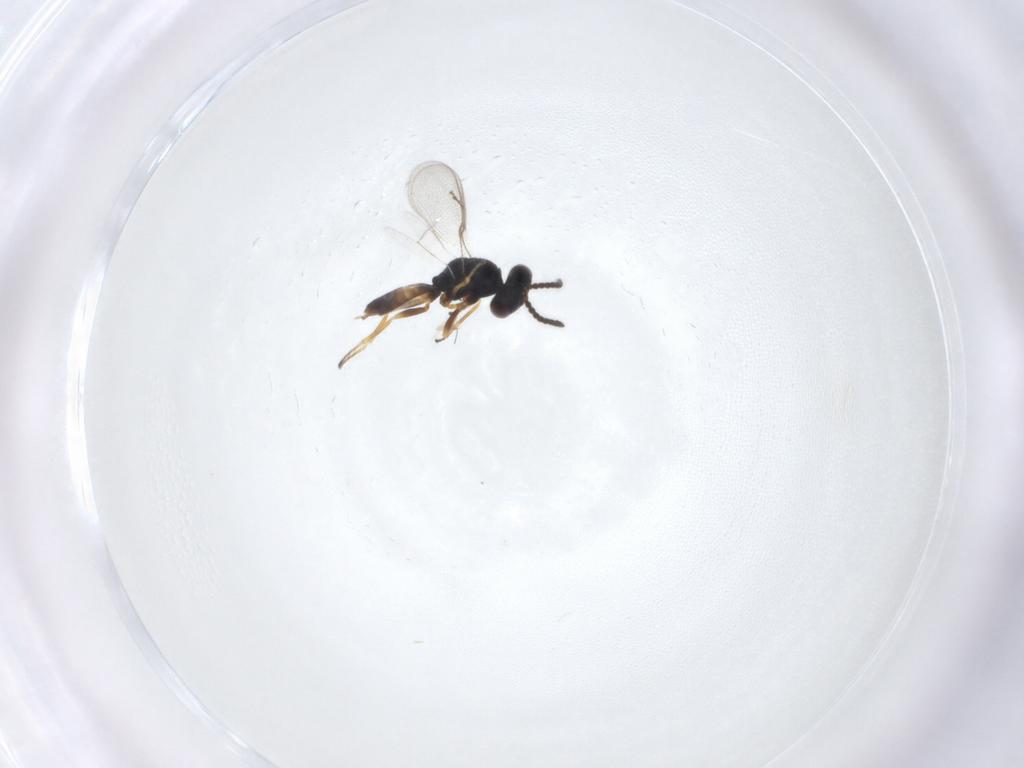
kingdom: Animalia
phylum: Arthropoda
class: Insecta
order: Hymenoptera
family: Pteromalidae
